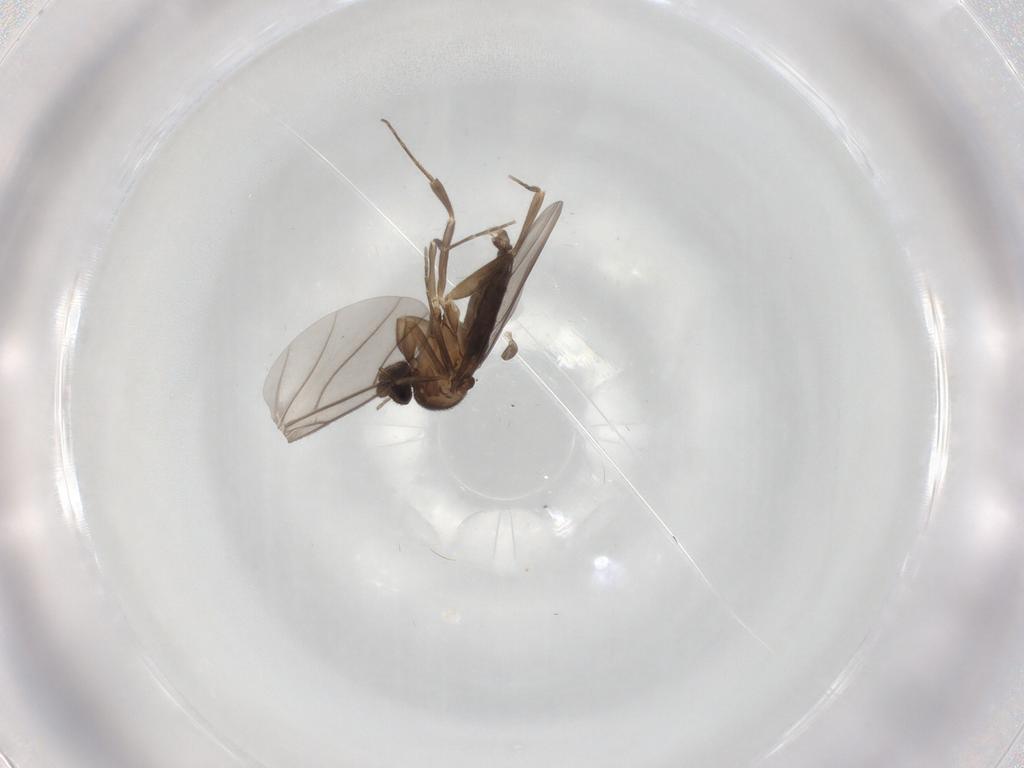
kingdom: Animalia
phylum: Arthropoda
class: Insecta
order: Diptera
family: Phoridae
